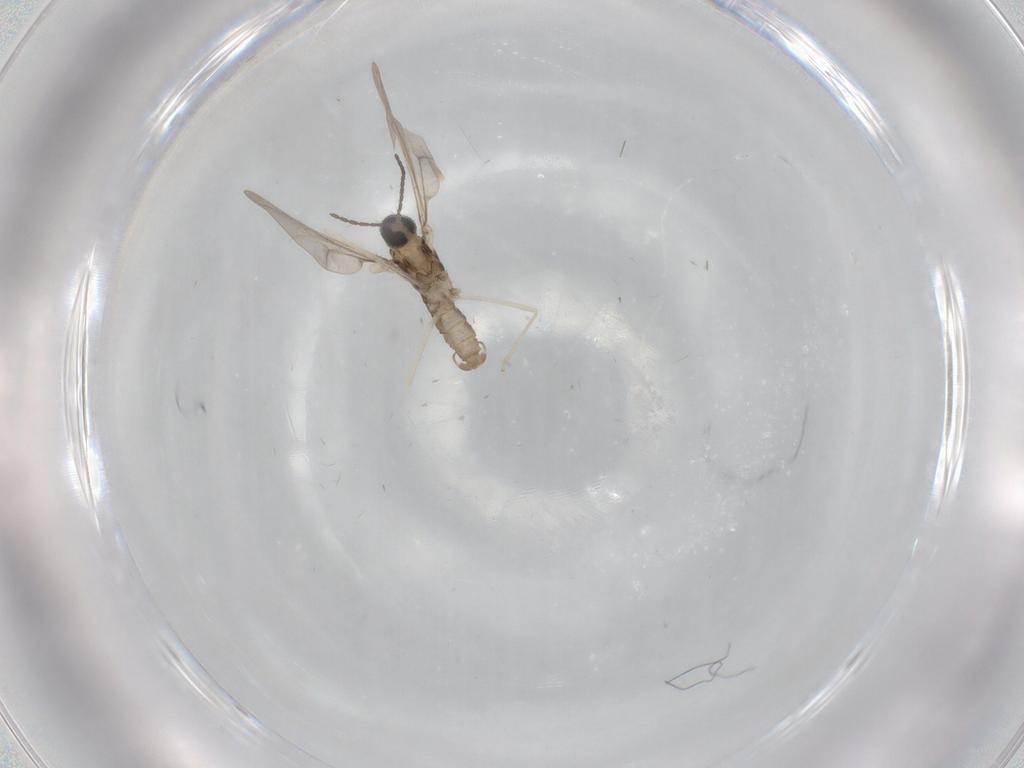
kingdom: Animalia
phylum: Arthropoda
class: Insecta
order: Diptera
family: Cecidomyiidae
